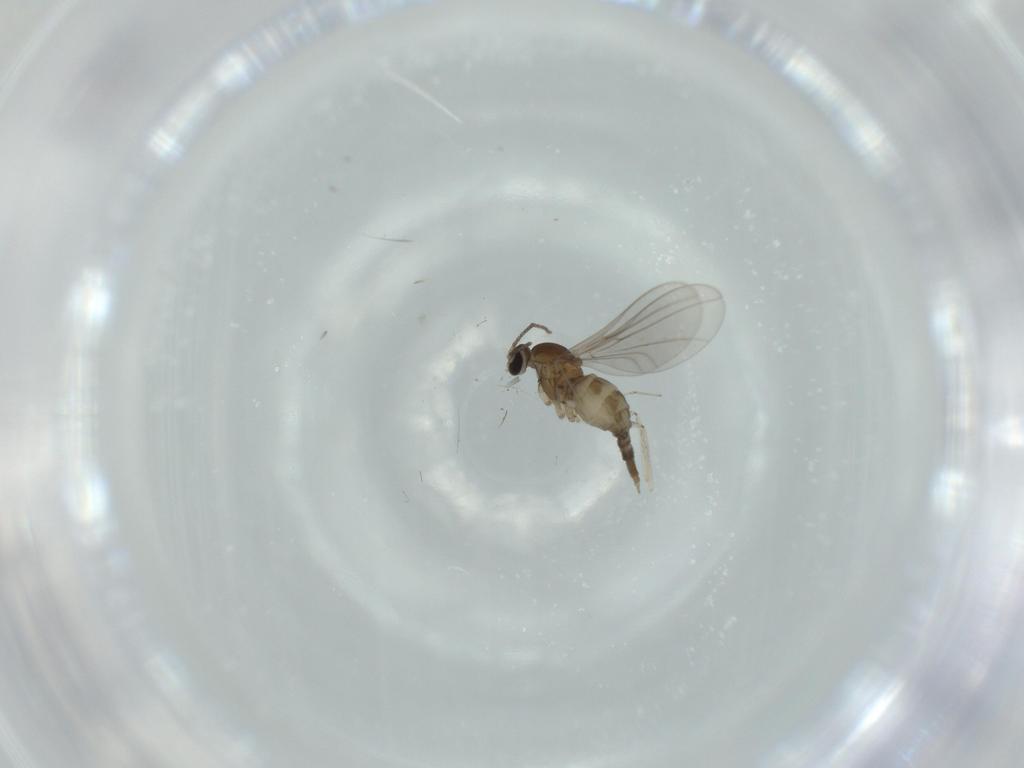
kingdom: Animalia
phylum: Arthropoda
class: Insecta
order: Diptera
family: Cecidomyiidae
